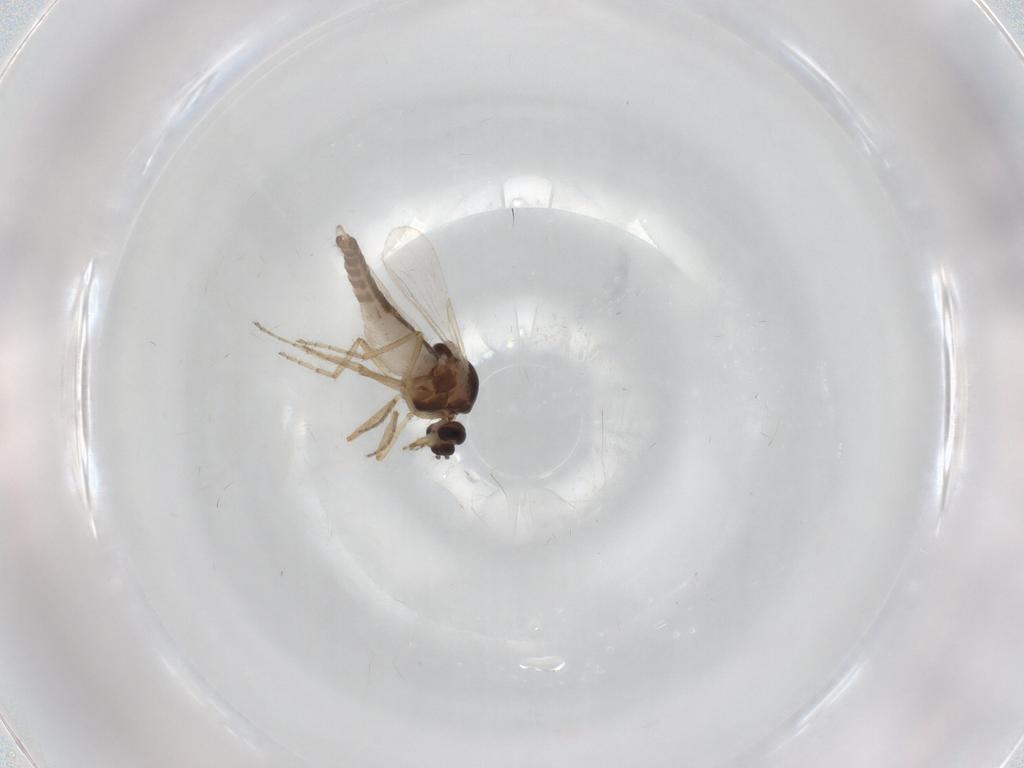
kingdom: Animalia
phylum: Arthropoda
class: Insecta
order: Diptera
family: Ceratopogonidae
